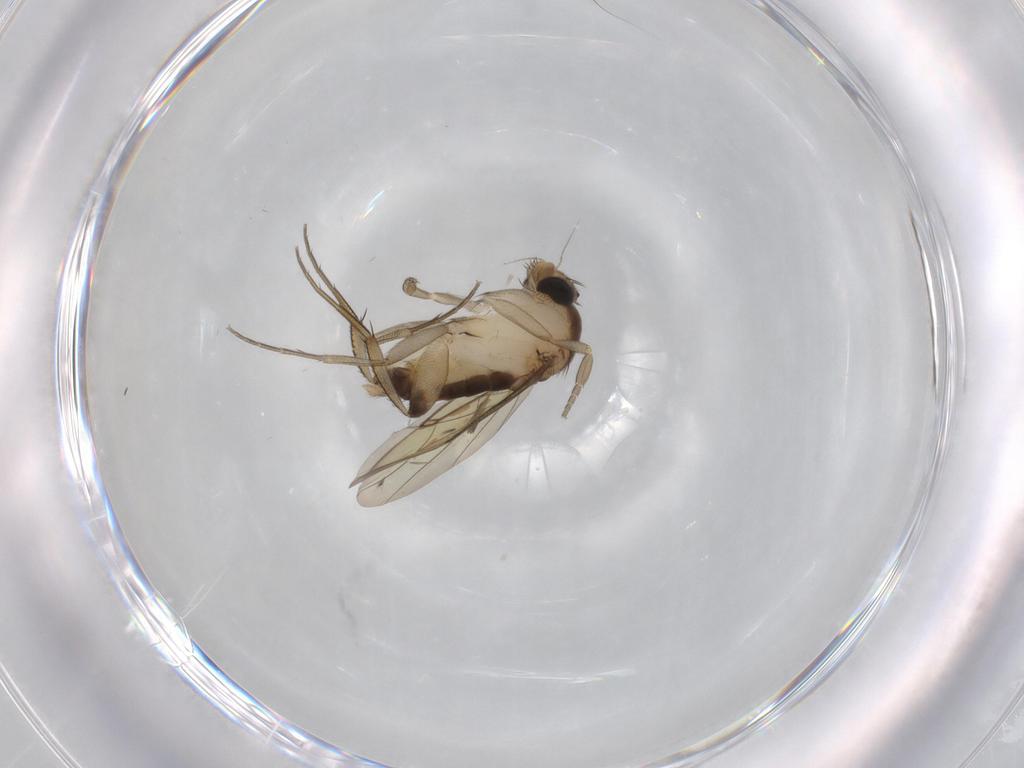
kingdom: Animalia
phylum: Arthropoda
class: Insecta
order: Diptera
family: Phoridae
